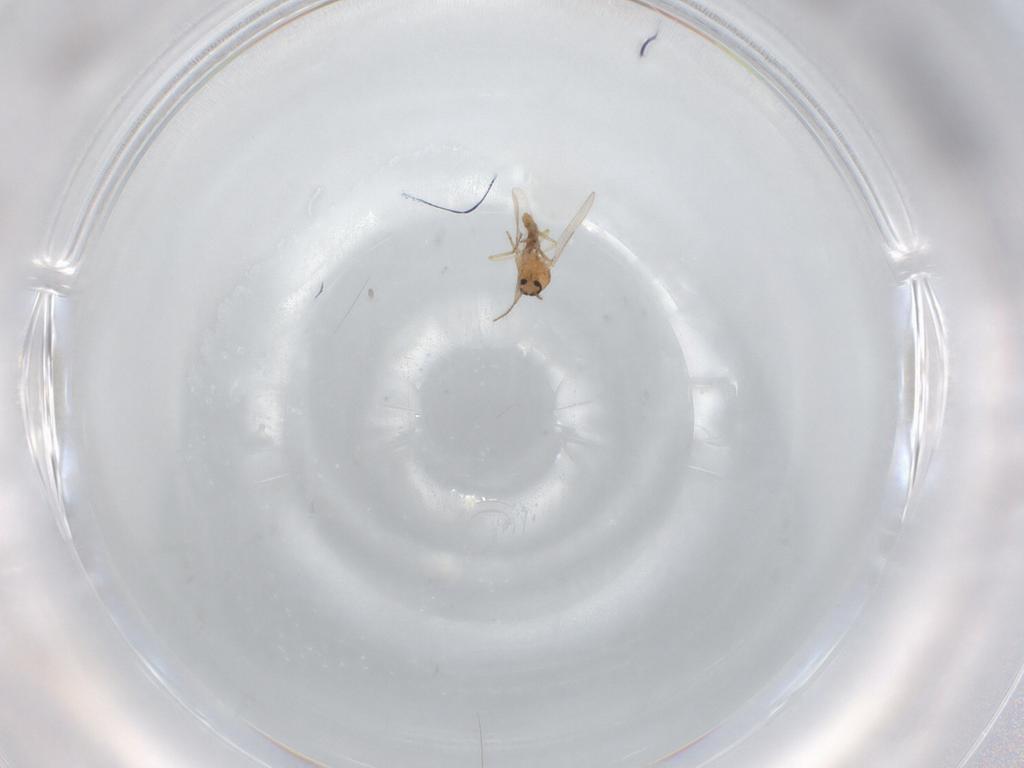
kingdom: Animalia
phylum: Arthropoda
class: Insecta
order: Diptera
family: Ceratopogonidae
